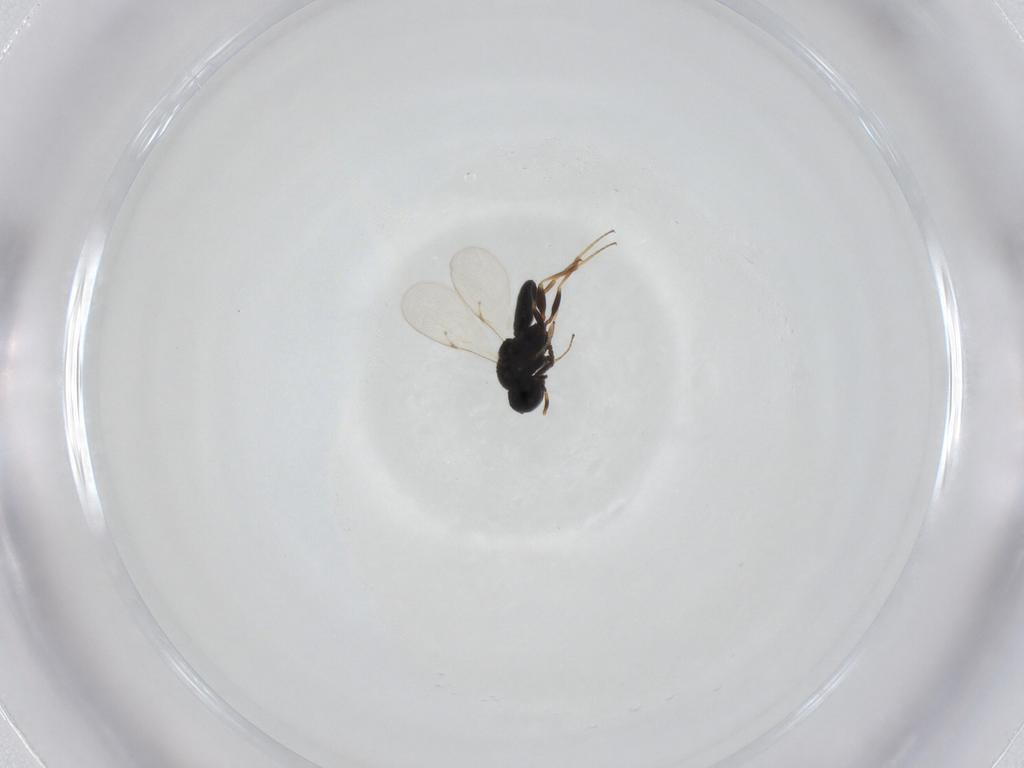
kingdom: Animalia
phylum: Arthropoda
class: Insecta
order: Hymenoptera
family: Scelionidae
